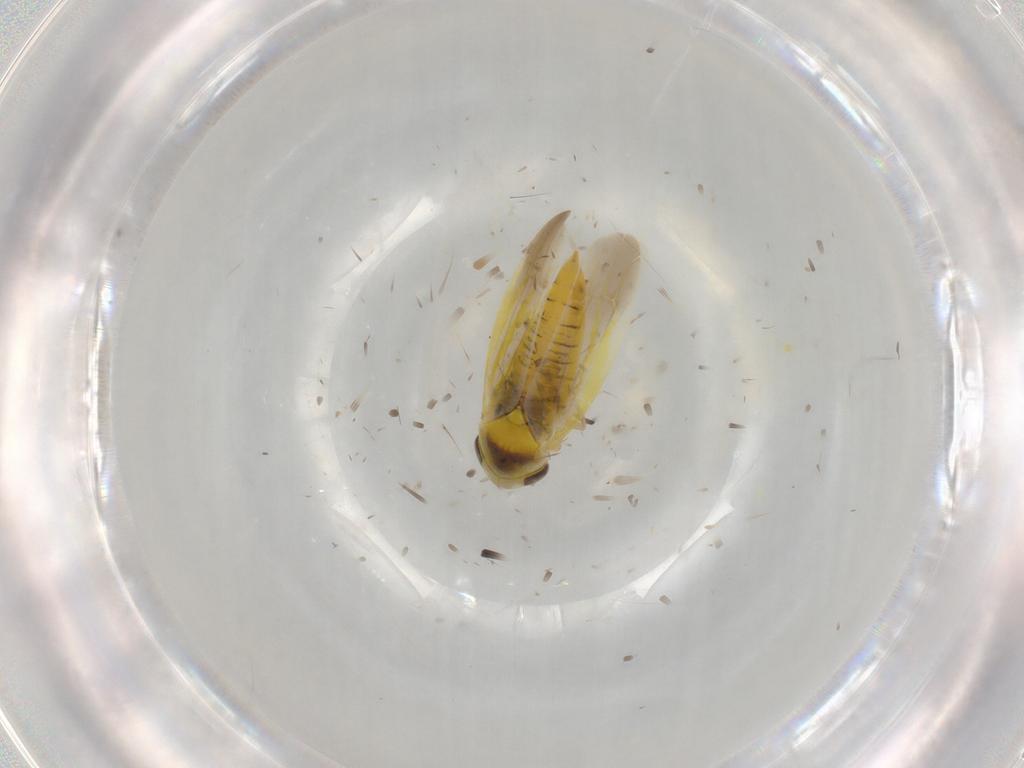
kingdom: Animalia
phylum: Arthropoda
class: Insecta
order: Hemiptera
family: Cicadellidae
